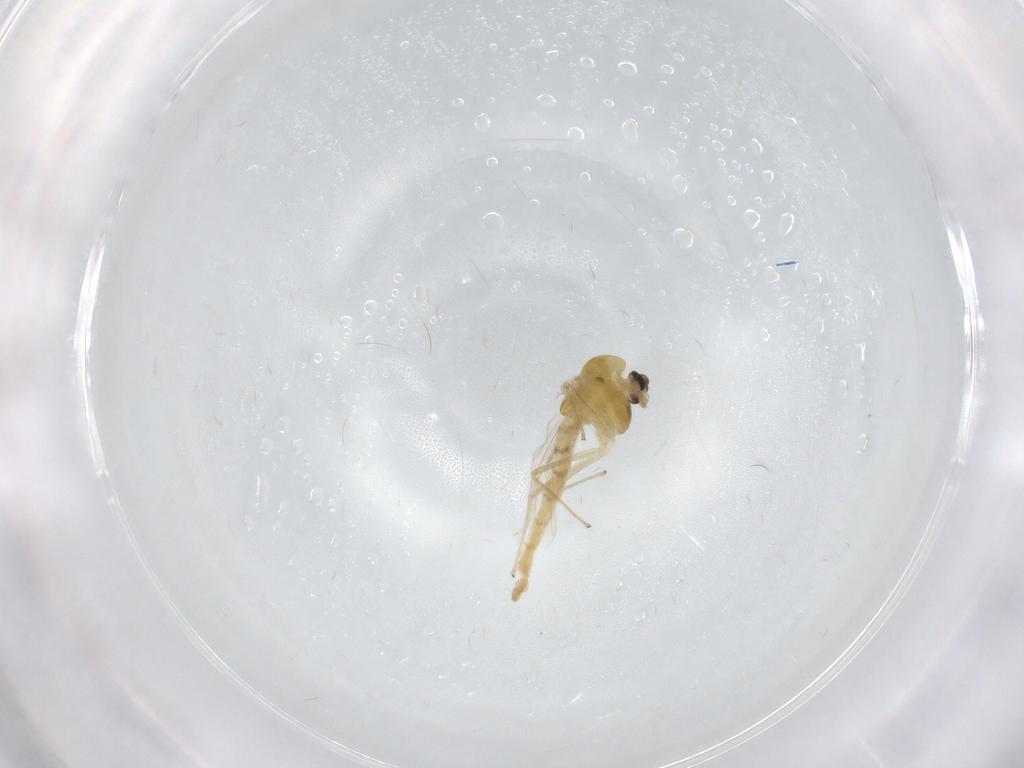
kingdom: Animalia
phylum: Arthropoda
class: Insecta
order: Diptera
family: Chironomidae
